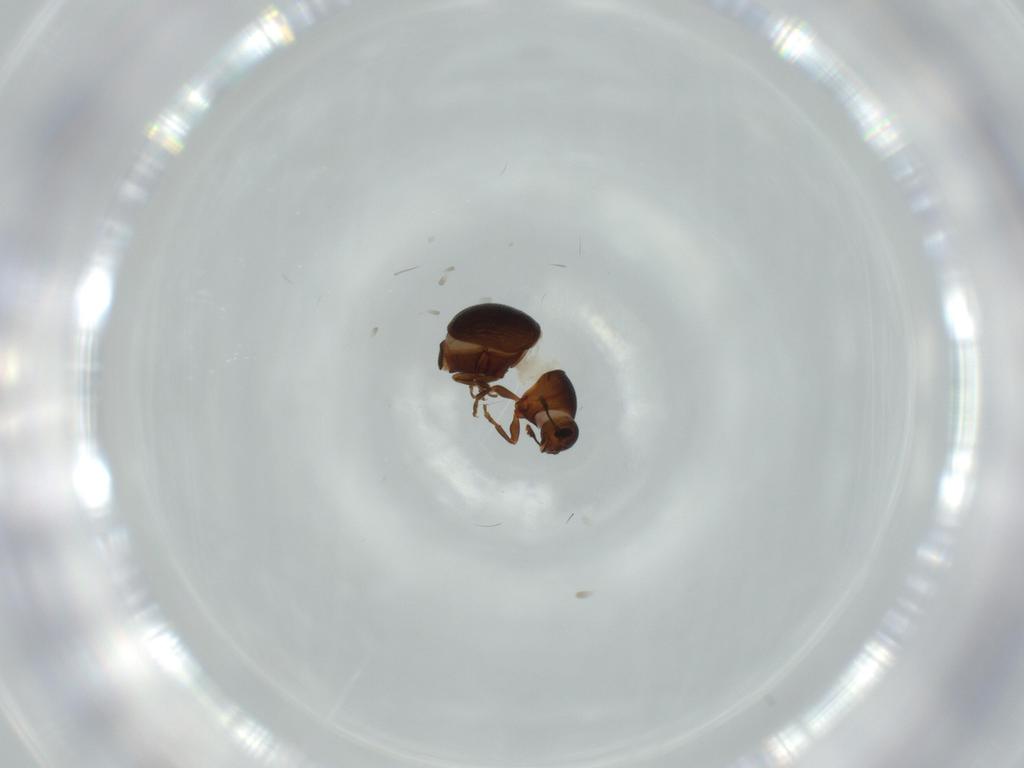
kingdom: Animalia
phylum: Arthropoda
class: Insecta
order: Coleoptera
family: Anthribidae
